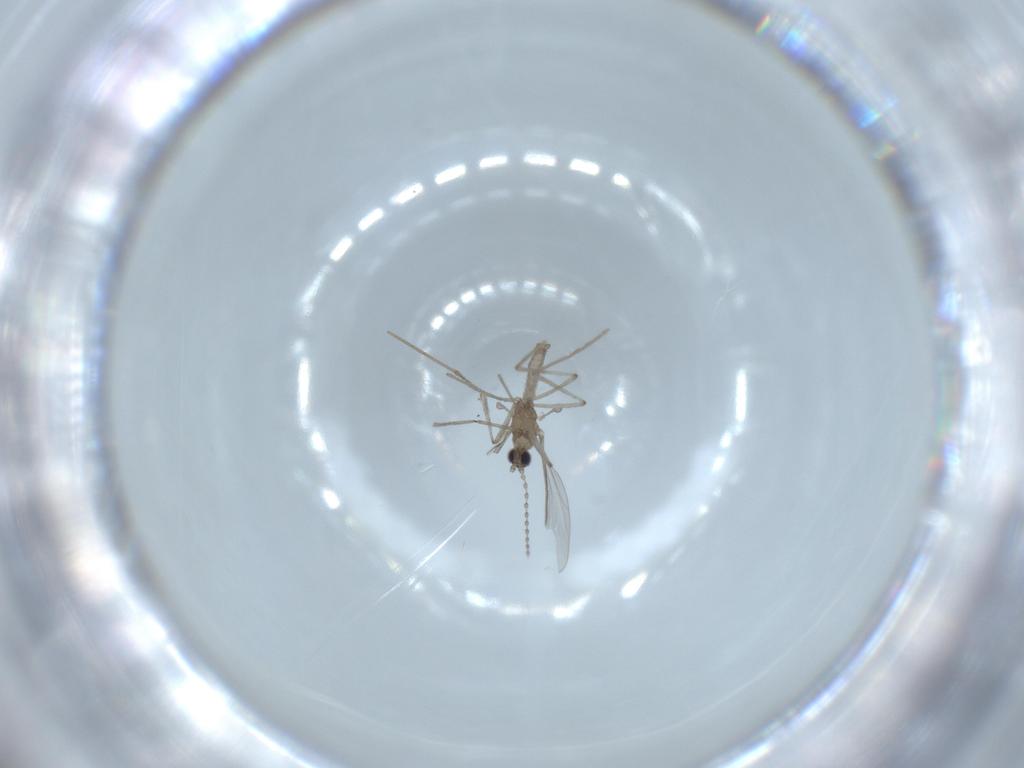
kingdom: Animalia
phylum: Arthropoda
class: Insecta
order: Diptera
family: Cecidomyiidae
